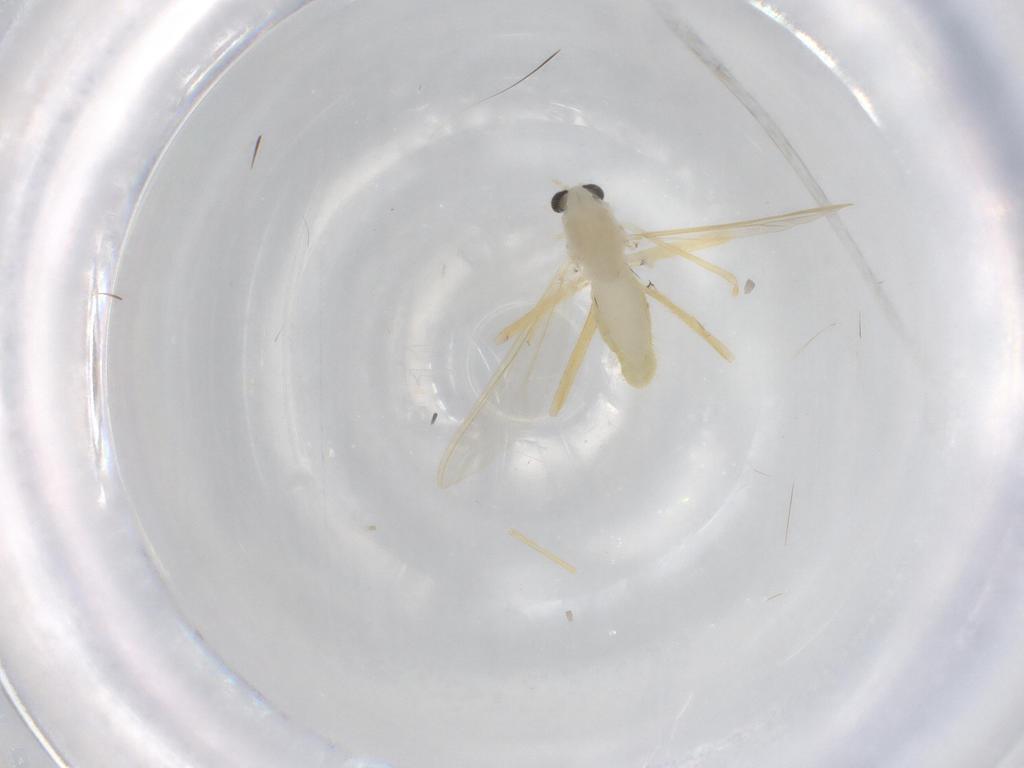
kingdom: Animalia
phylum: Arthropoda
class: Insecta
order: Diptera
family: Chironomidae
